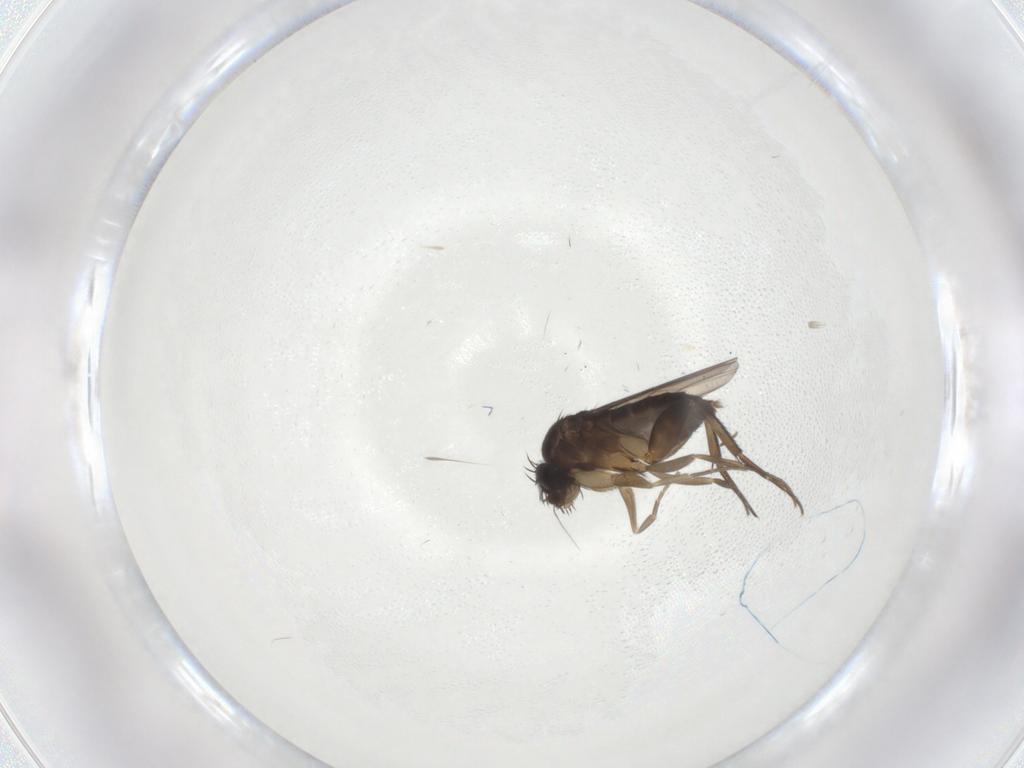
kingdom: Animalia
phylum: Arthropoda
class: Insecta
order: Diptera
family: Phoridae
